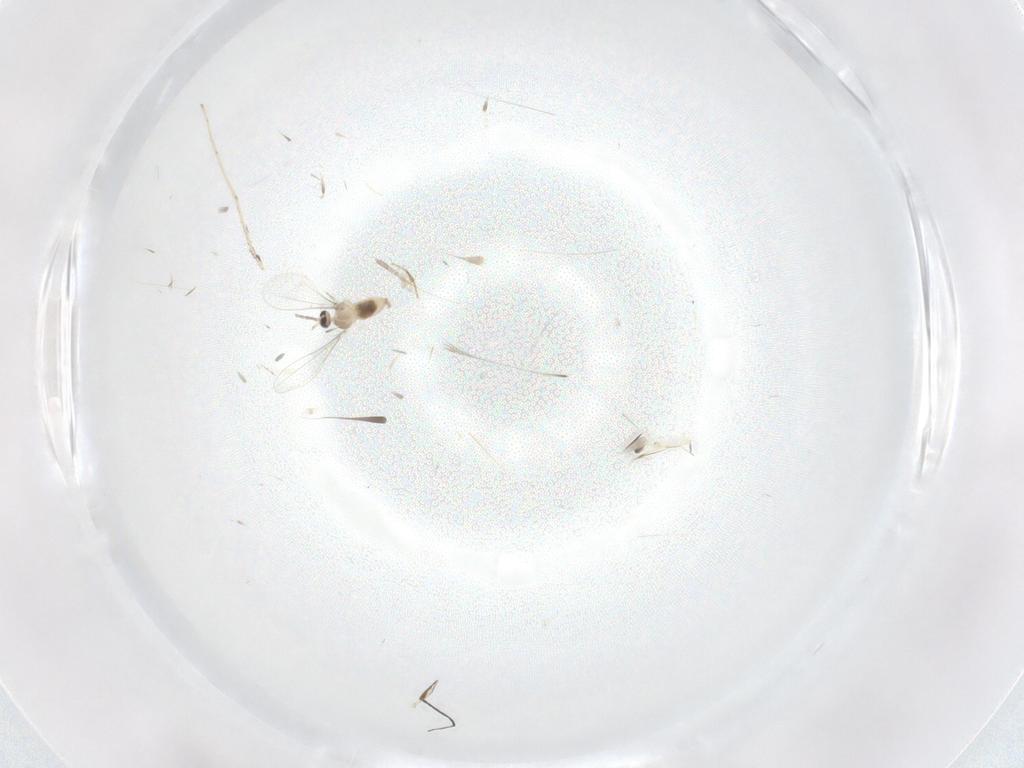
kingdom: Animalia
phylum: Arthropoda
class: Insecta
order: Diptera
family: Cecidomyiidae
